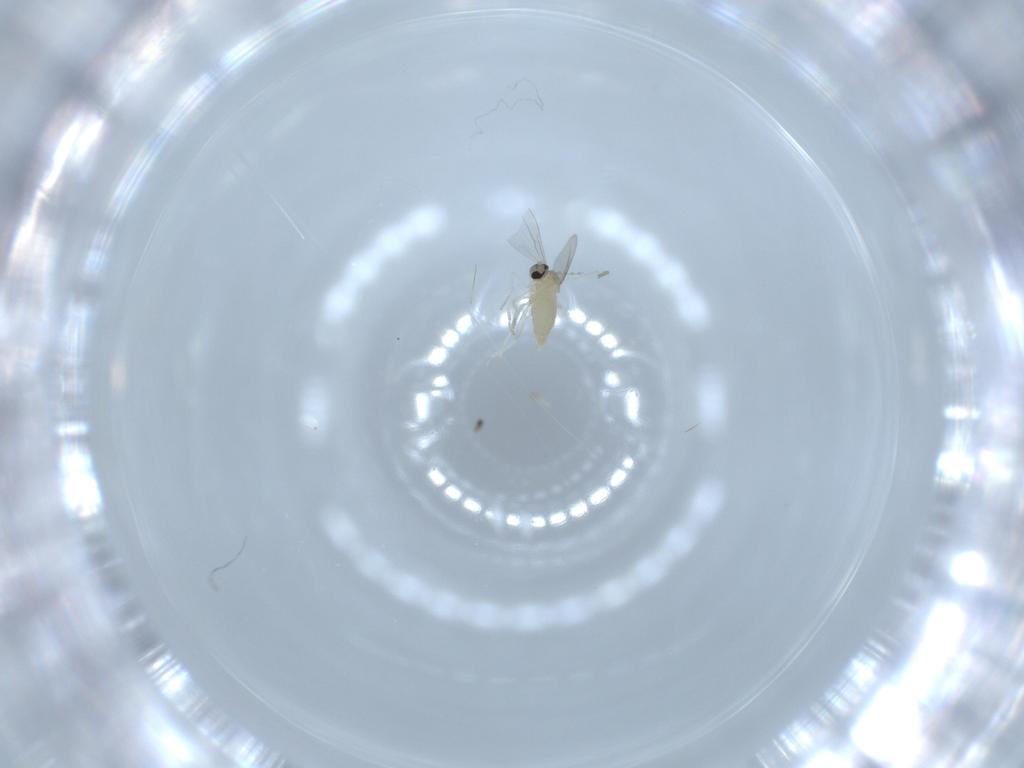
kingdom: Animalia
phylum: Arthropoda
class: Insecta
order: Diptera
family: Cecidomyiidae
